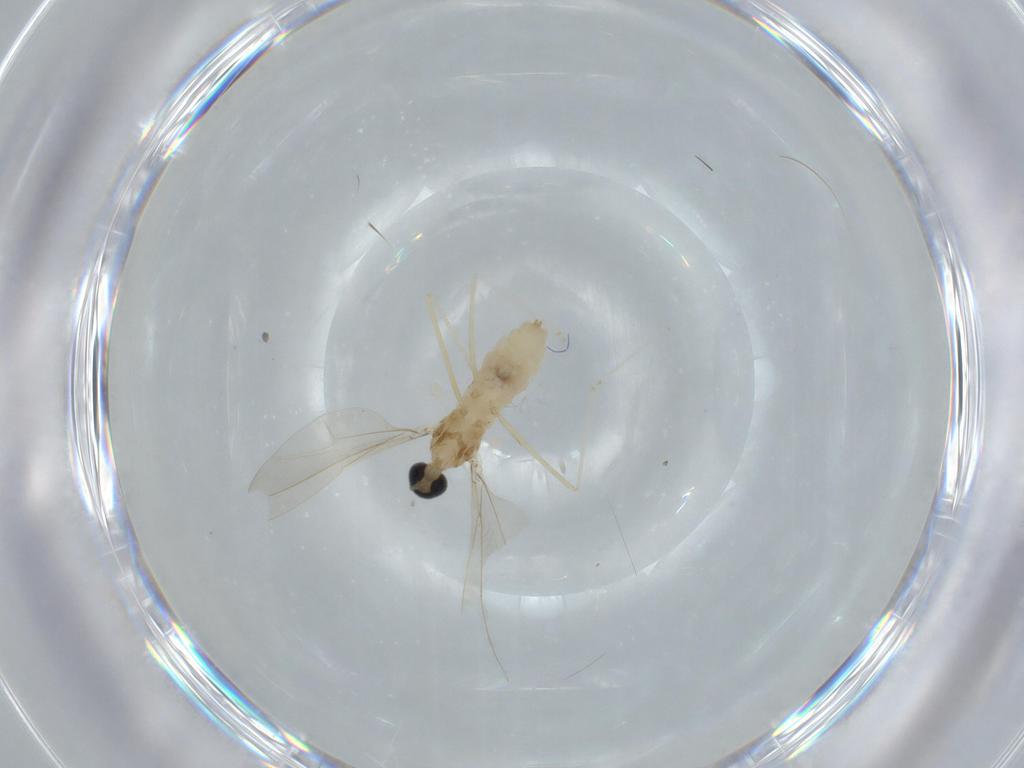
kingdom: Animalia
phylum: Arthropoda
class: Insecta
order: Diptera
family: Cecidomyiidae
